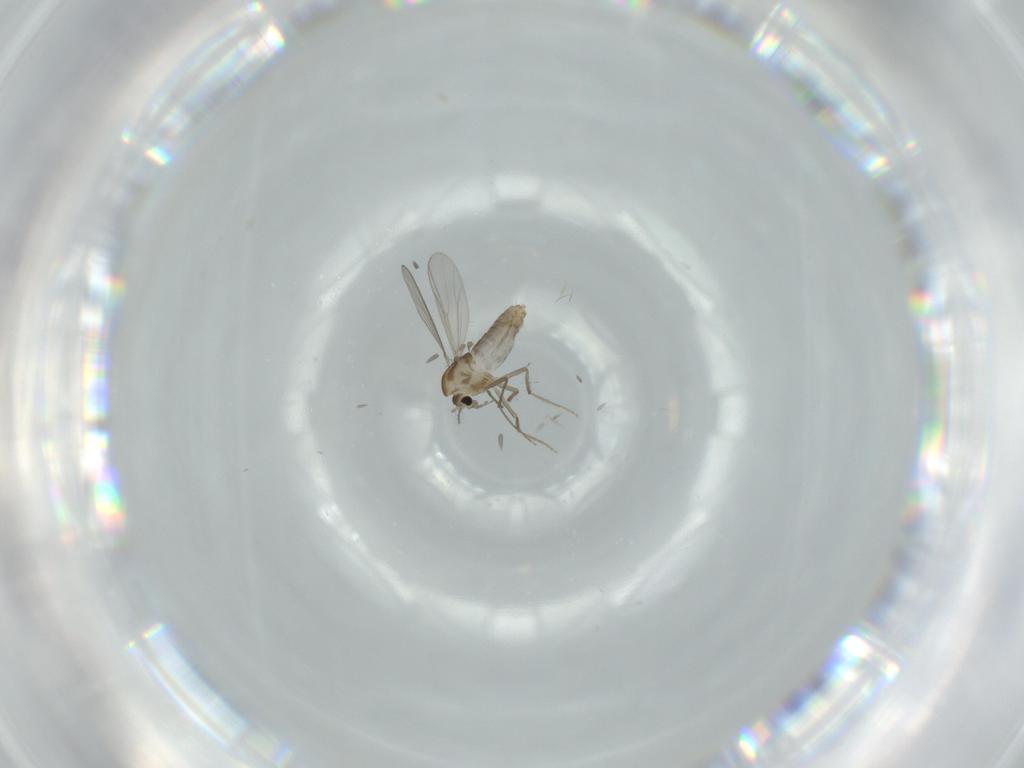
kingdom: Animalia
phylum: Arthropoda
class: Insecta
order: Diptera
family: Chironomidae
